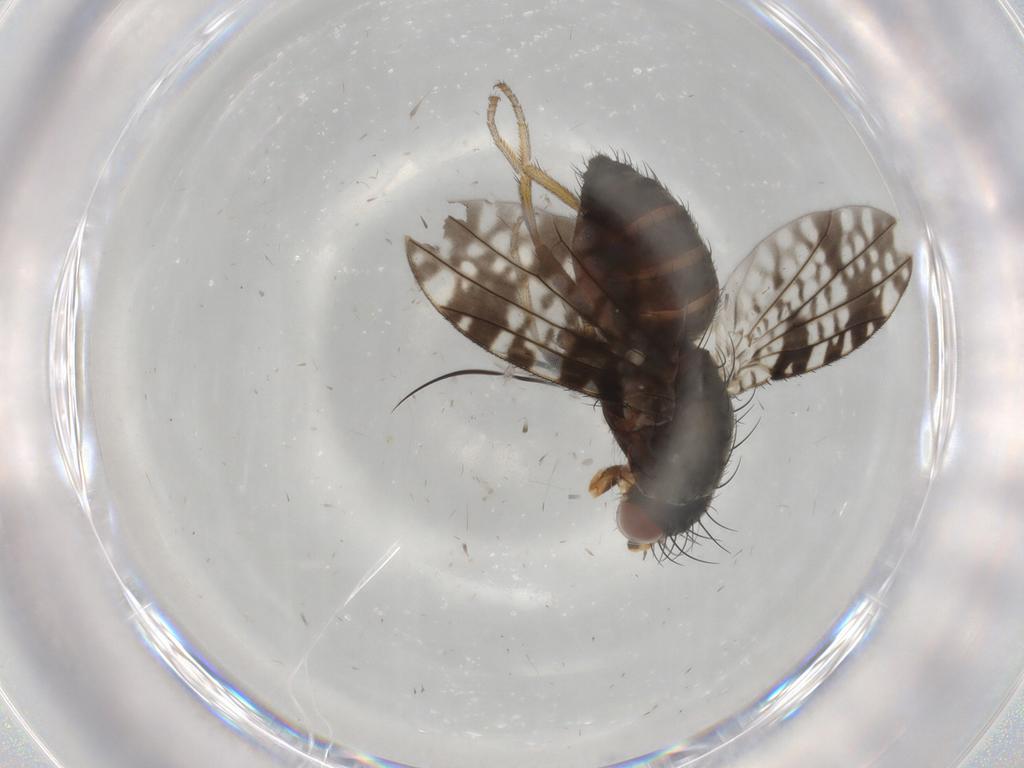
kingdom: Animalia
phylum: Arthropoda
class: Insecta
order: Diptera
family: Tephritidae
